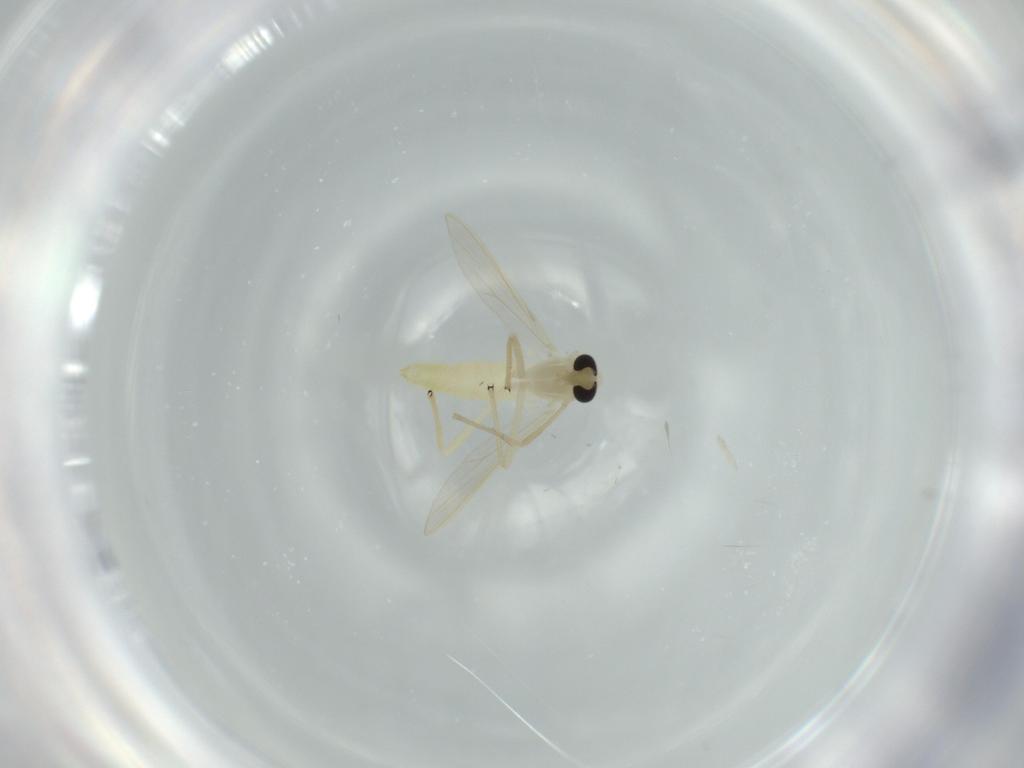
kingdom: Animalia
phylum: Arthropoda
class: Insecta
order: Diptera
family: Chironomidae
